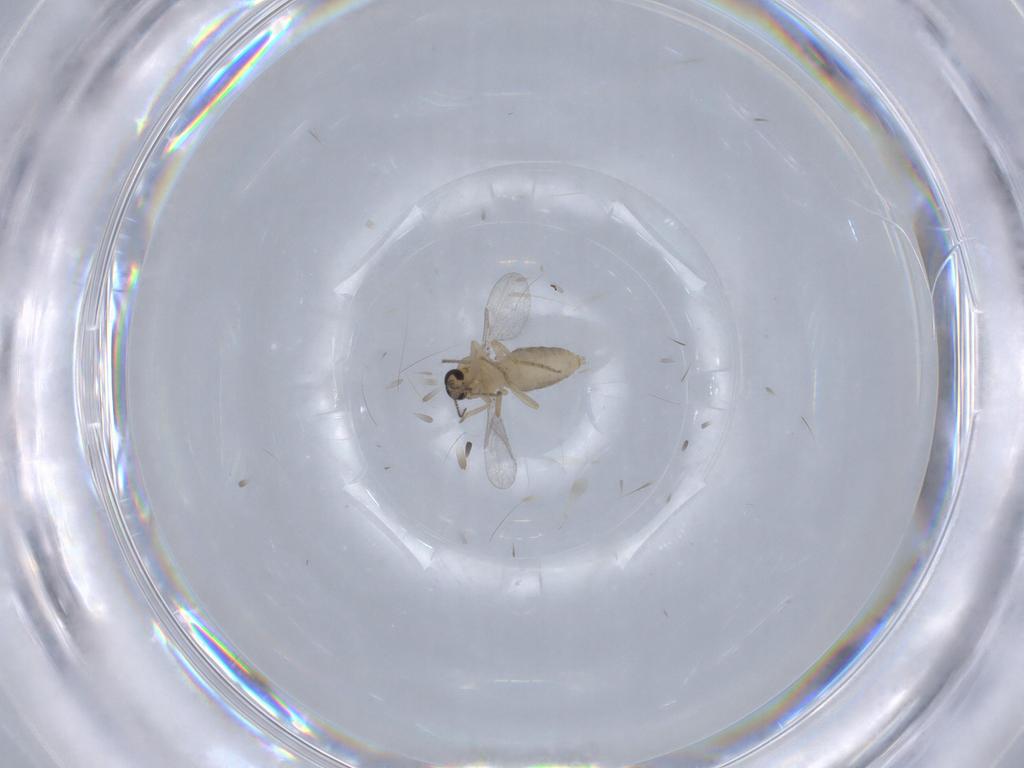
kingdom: Animalia
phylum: Arthropoda
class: Insecta
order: Diptera
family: Ceratopogonidae
